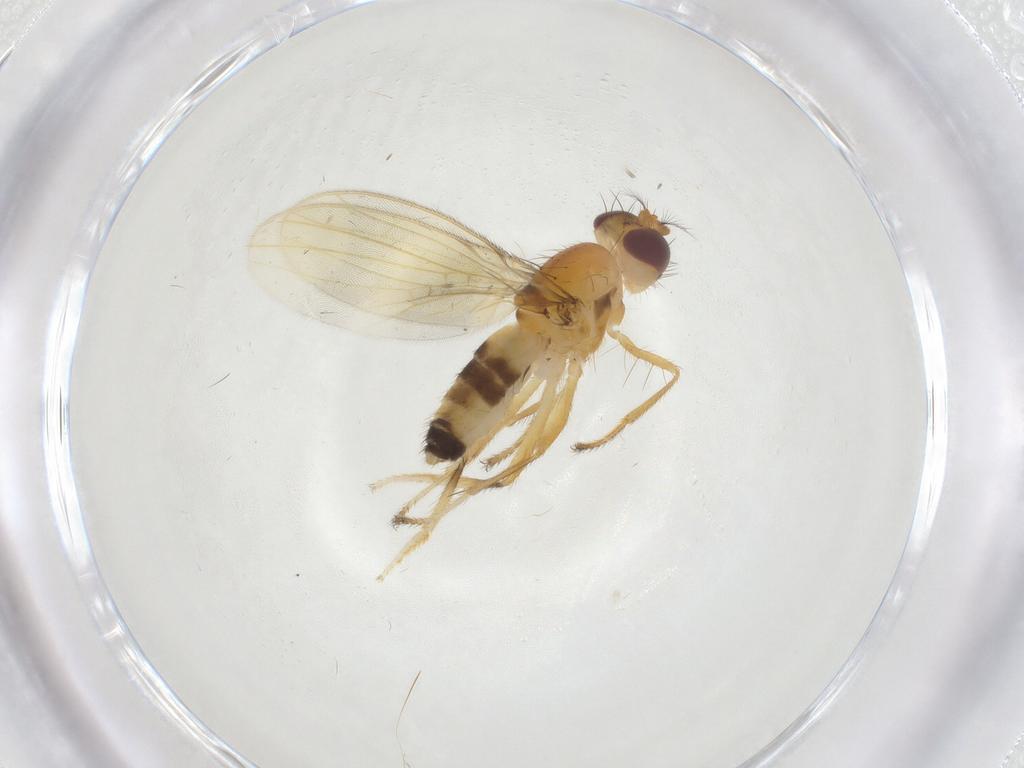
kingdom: Animalia
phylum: Arthropoda
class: Insecta
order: Diptera
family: Periscelididae
